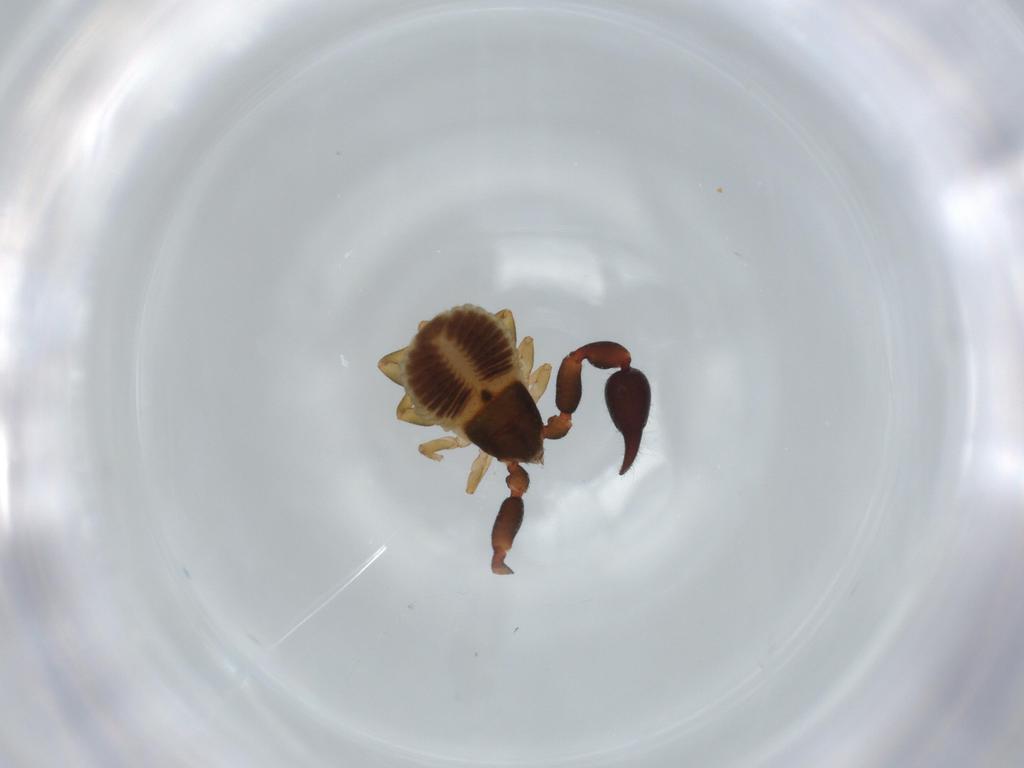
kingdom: Animalia
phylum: Arthropoda
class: Arachnida
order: Pseudoscorpiones
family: Chernetidae
